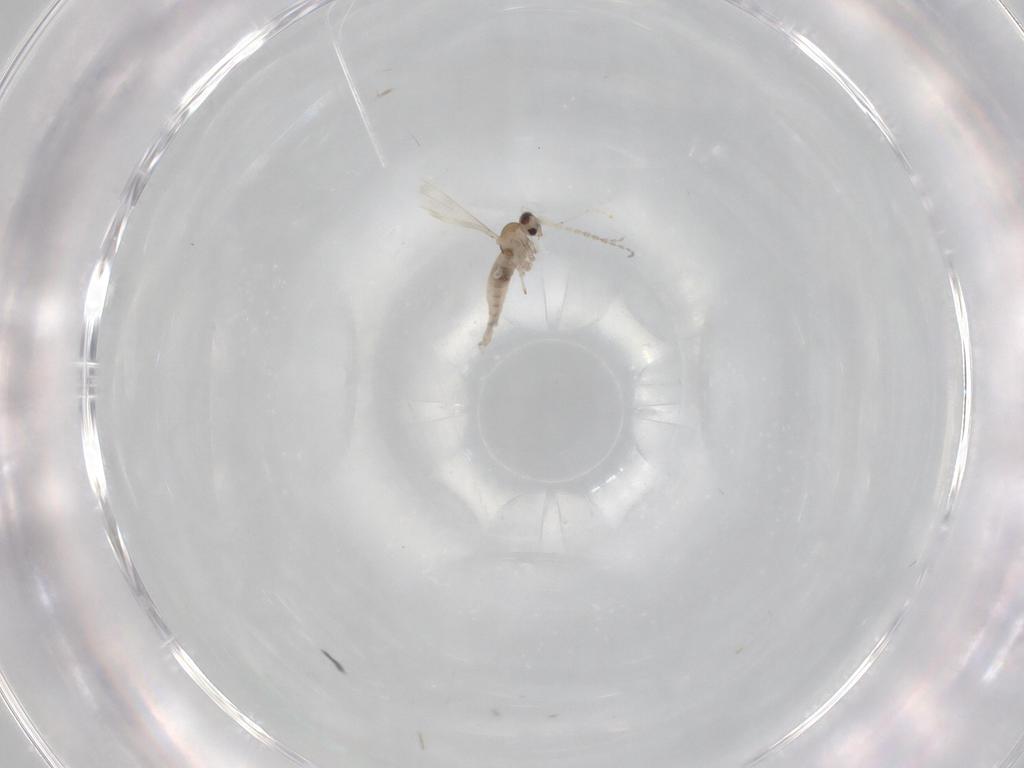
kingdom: Animalia
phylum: Arthropoda
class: Insecta
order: Diptera
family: Cecidomyiidae
